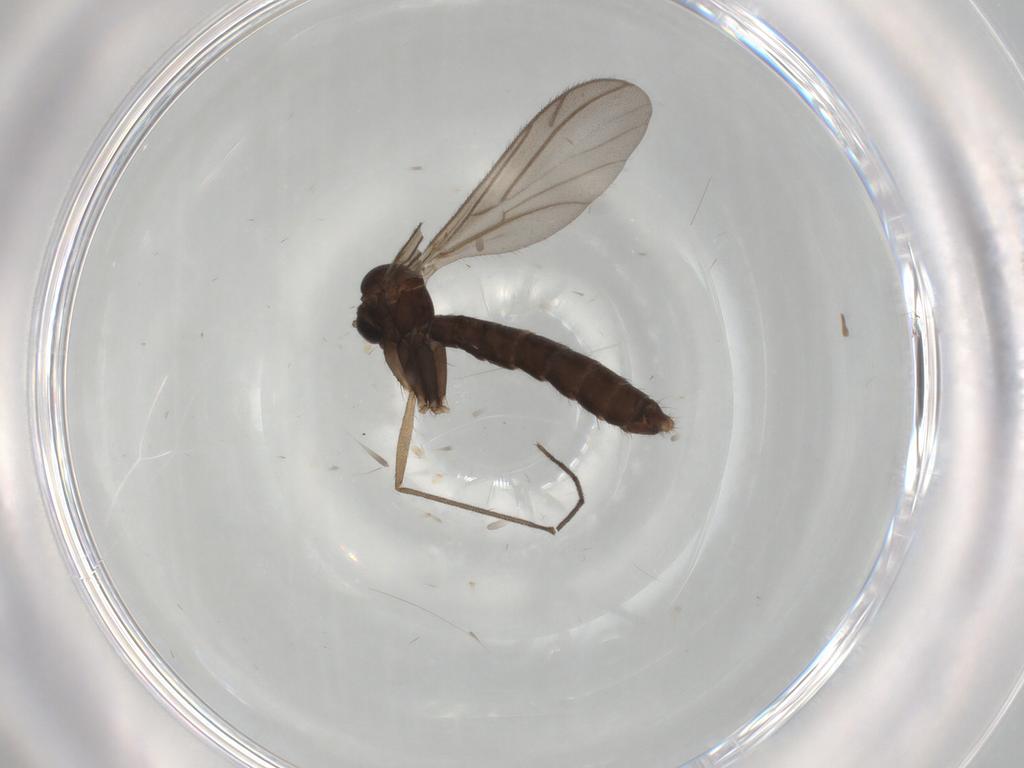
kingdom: Animalia
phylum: Arthropoda
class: Insecta
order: Diptera
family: Ditomyiidae
